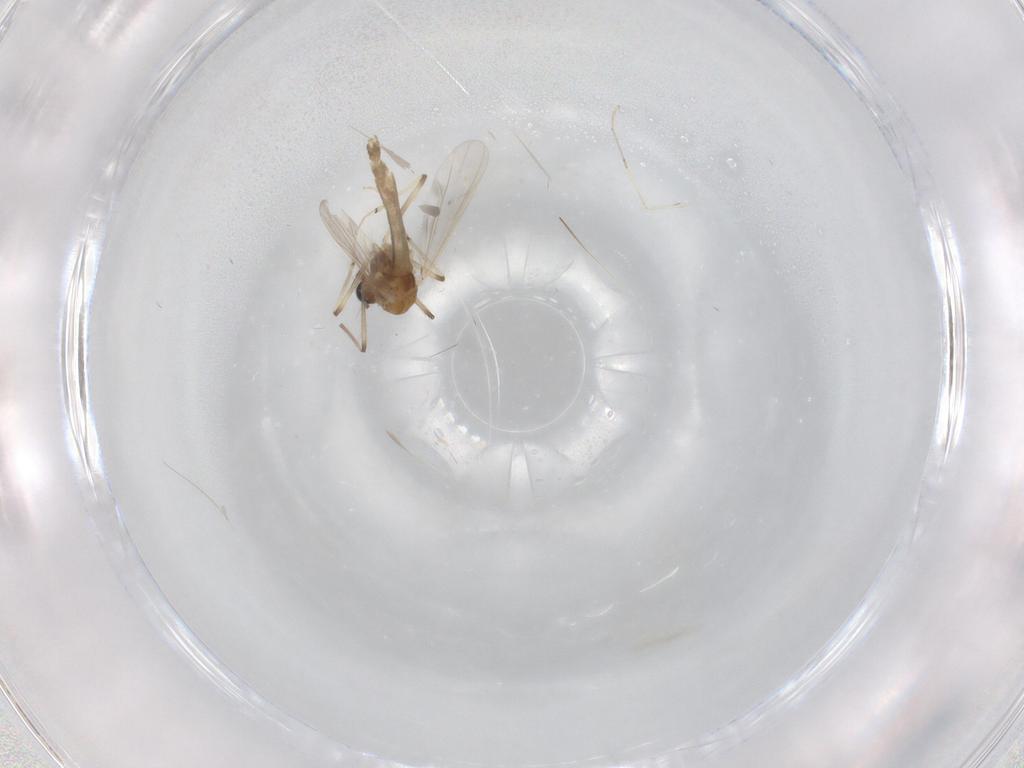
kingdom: Animalia
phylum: Arthropoda
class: Insecta
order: Diptera
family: Chironomidae
